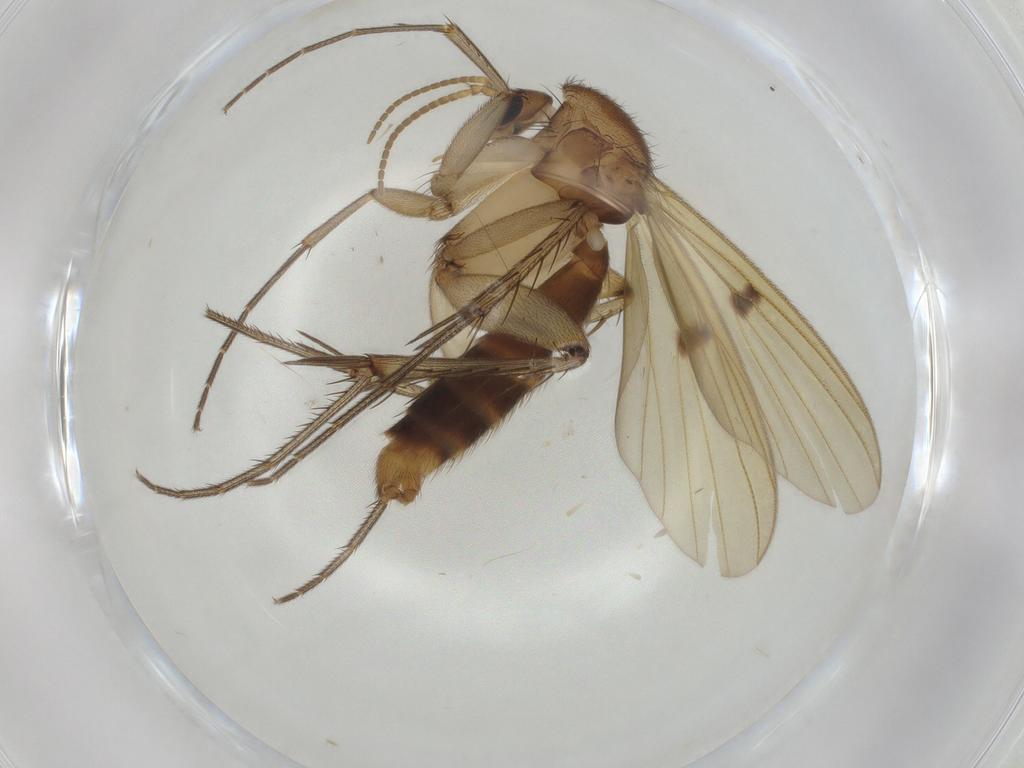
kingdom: Animalia
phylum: Arthropoda
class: Insecta
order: Diptera
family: Mycetophilidae
